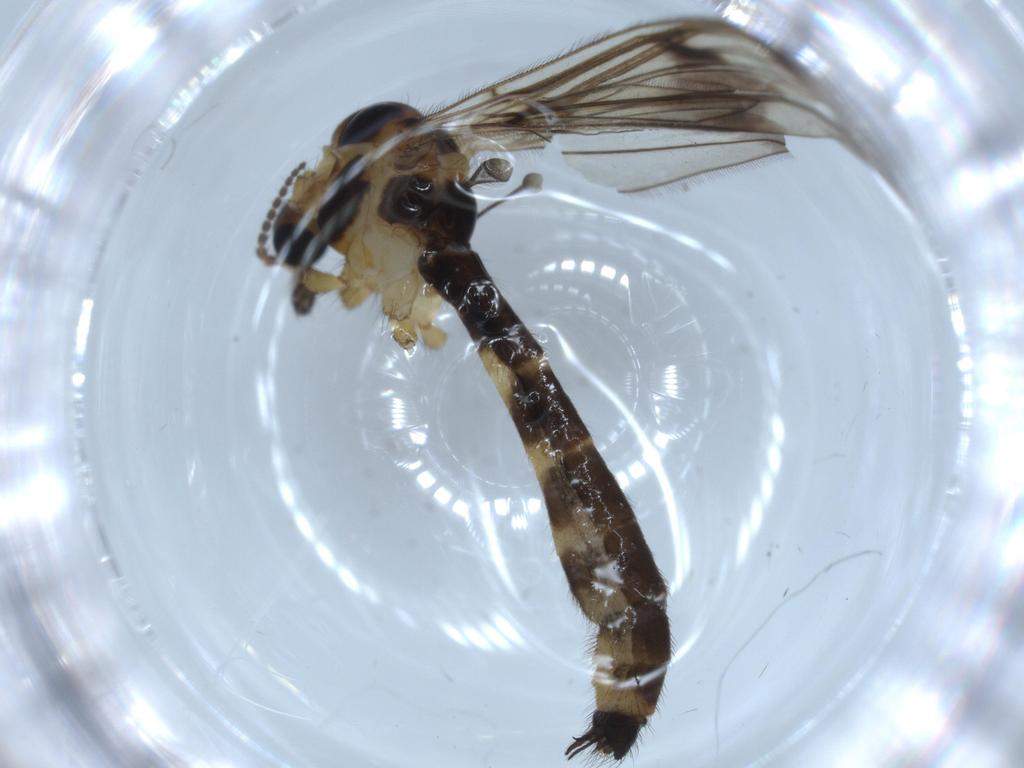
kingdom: Animalia
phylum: Arthropoda
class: Insecta
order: Diptera
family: Limoniidae
